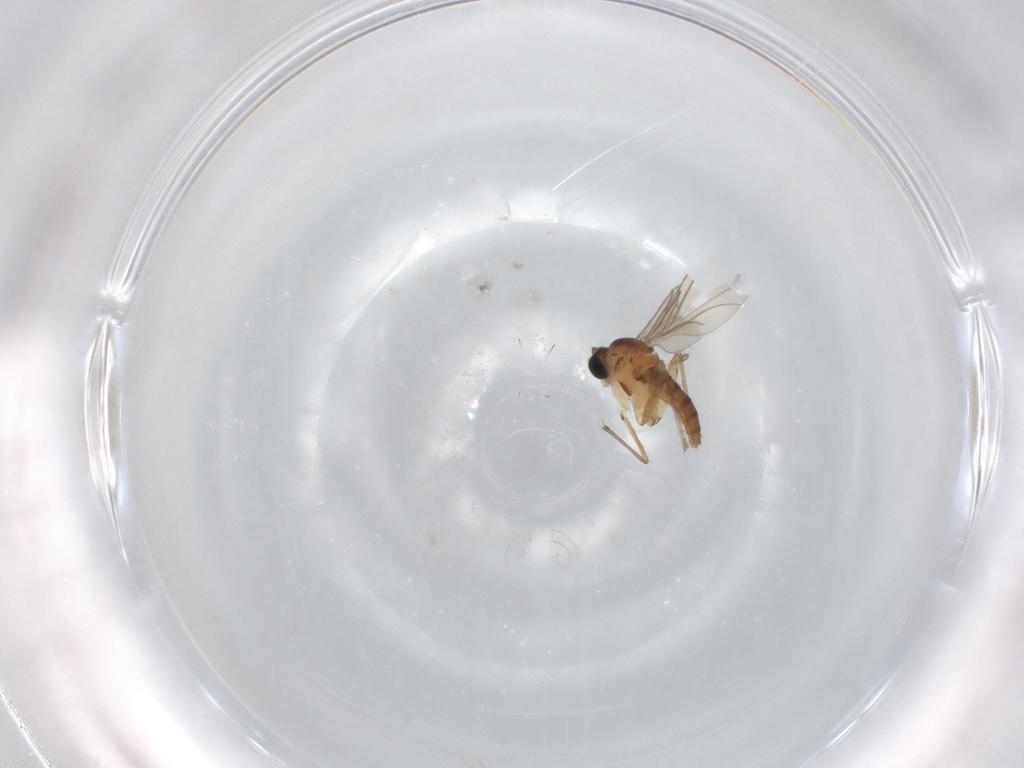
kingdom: Animalia
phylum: Arthropoda
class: Insecta
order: Diptera
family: Sciaridae
